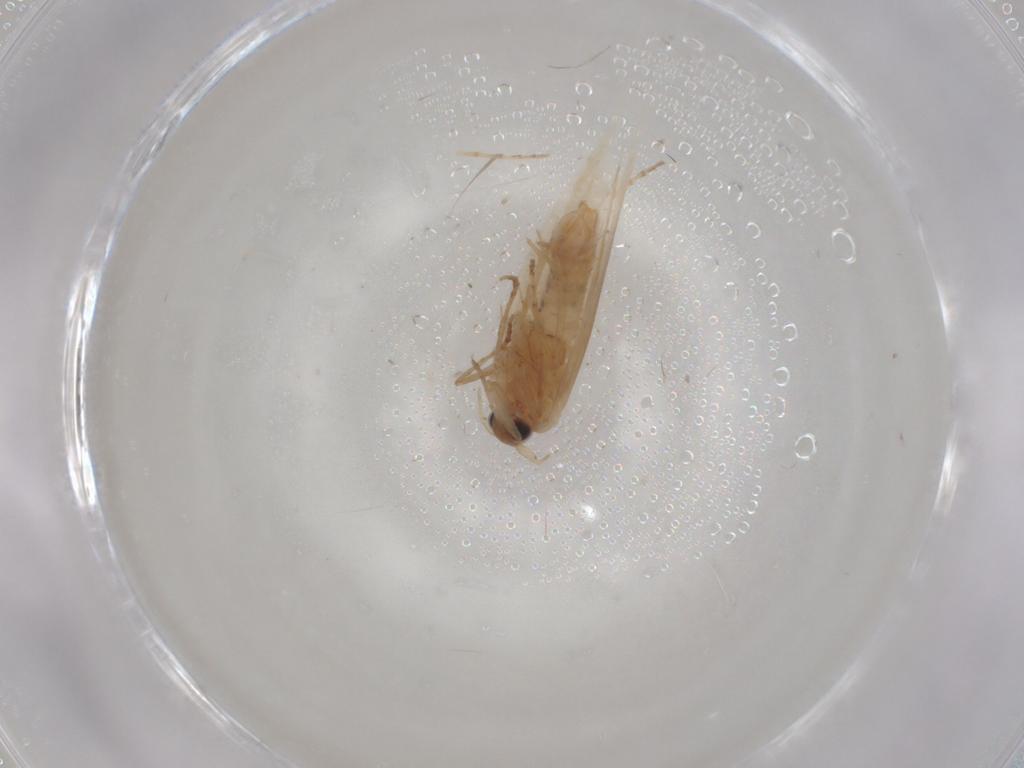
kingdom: Animalia
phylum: Arthropoda
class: Insecta
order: Lepidoptera
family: Bucculatricidae
